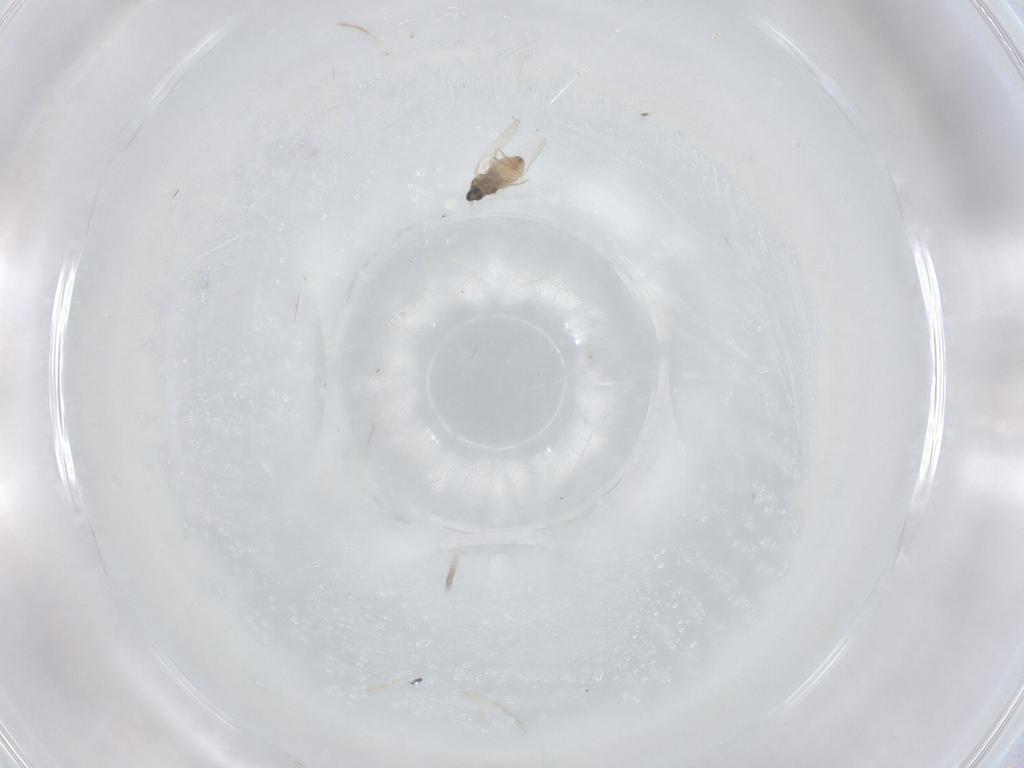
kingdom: Animalia
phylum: Arthropoda
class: Insecta
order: Diptera
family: Cecidomyiidae
